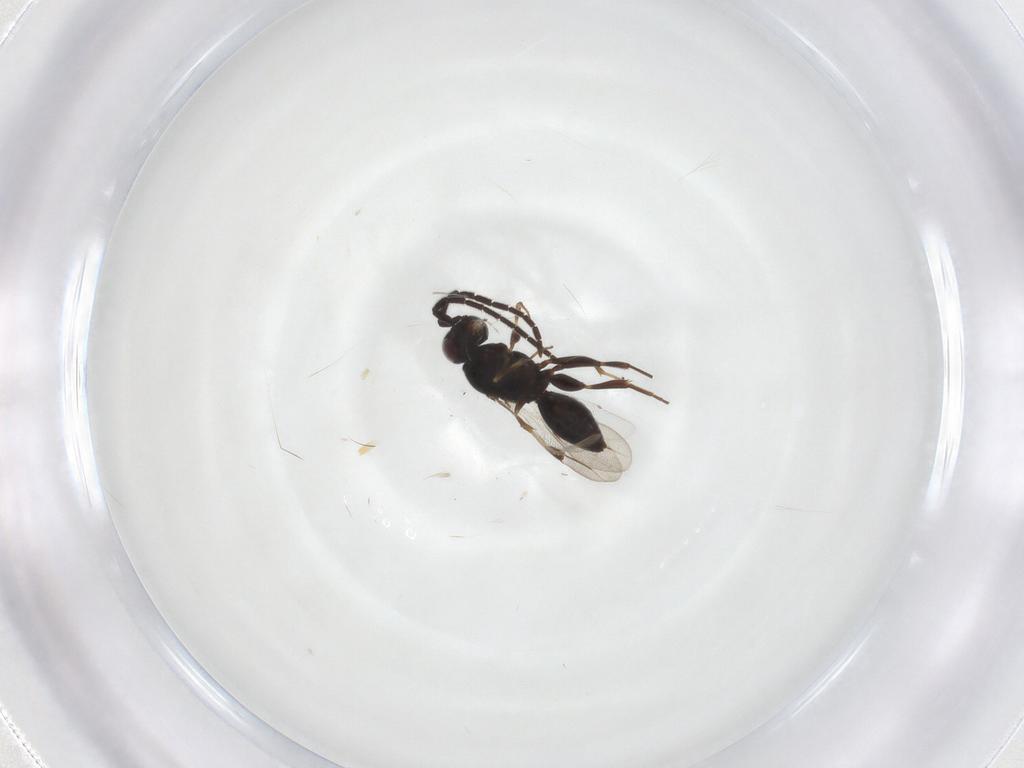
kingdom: Animalia
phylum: Arthropoda
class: Insecta
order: Hymenoptera
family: Megaspilidae
